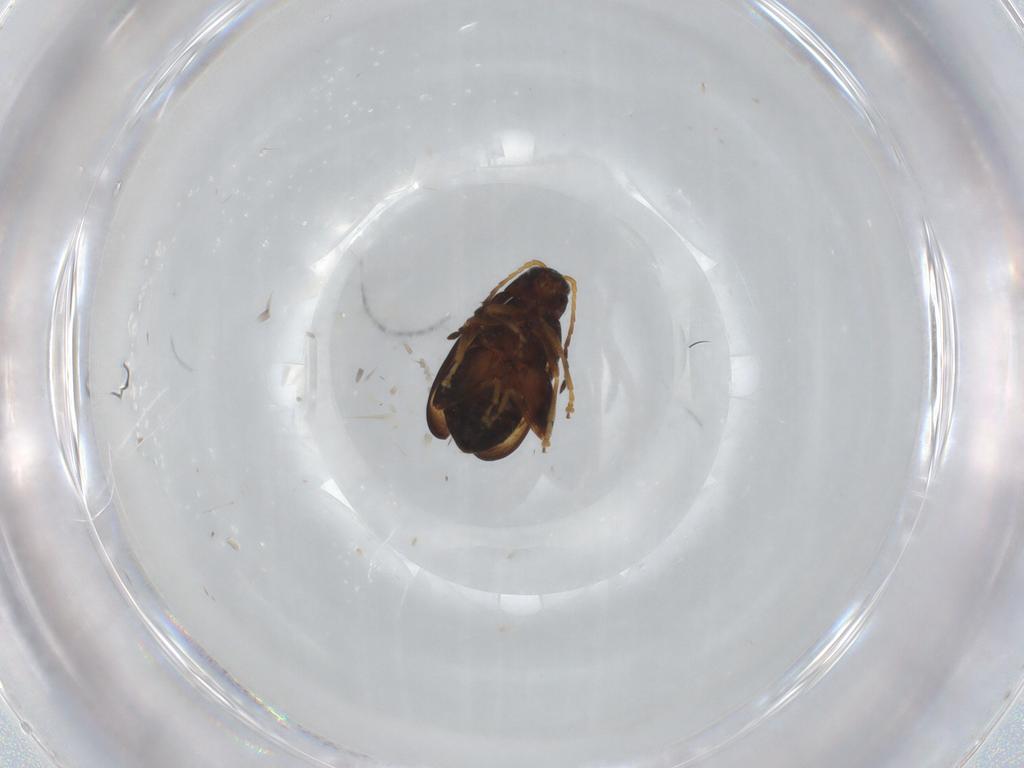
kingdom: Animalia
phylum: Arthropoda
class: Insecta
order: Coleoptera
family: Chrysomelidae
